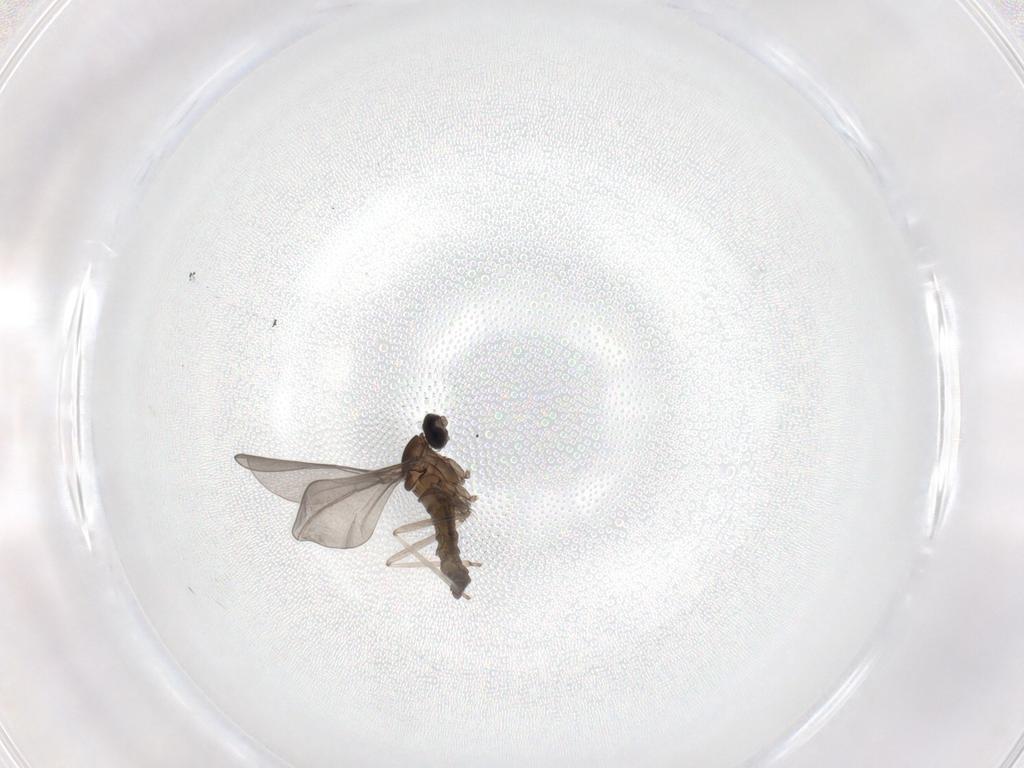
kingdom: Animalia
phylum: Arthropoda
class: Insecta
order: Diptera
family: Cecidomyiidae
